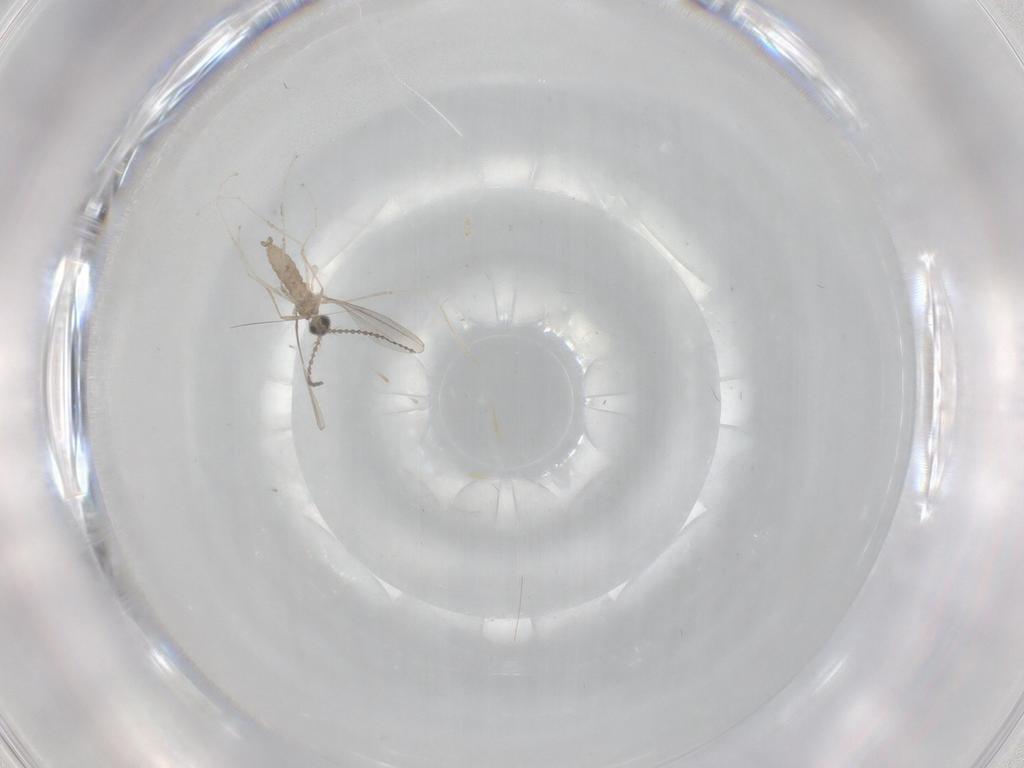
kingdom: Animalia
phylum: Arthropoda
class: Insecta
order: Diptera
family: Cecidomyiidae
